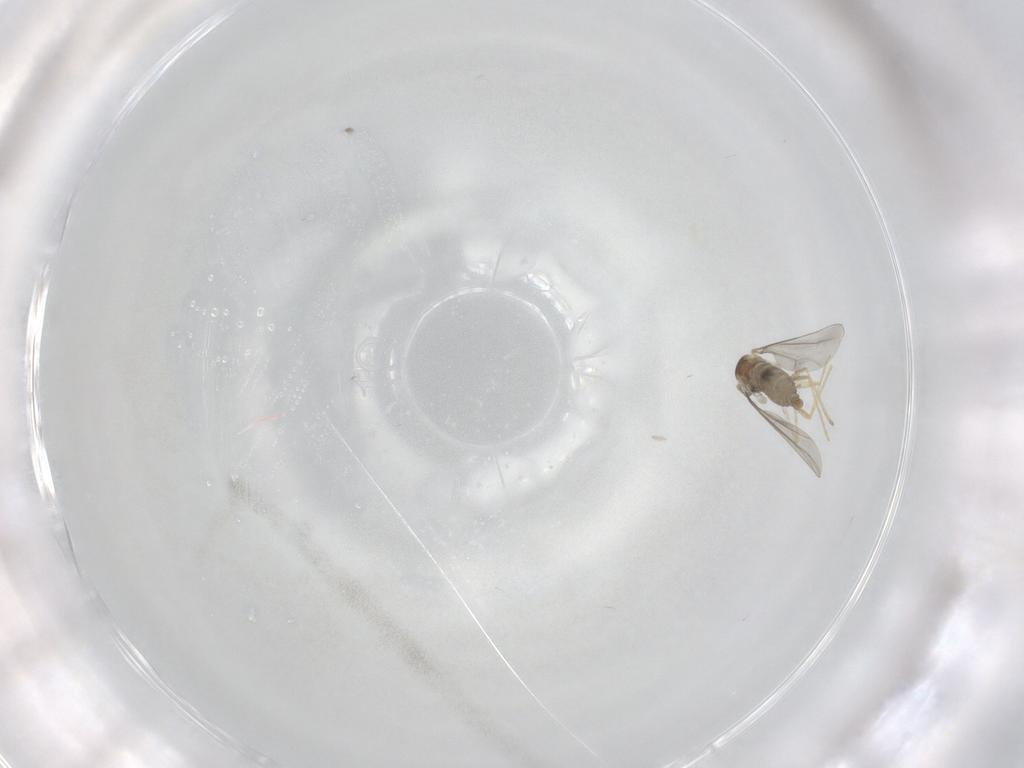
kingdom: Animalia
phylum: Arthropoda
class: Insecta
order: Diptera
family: Cecidomyiidae
